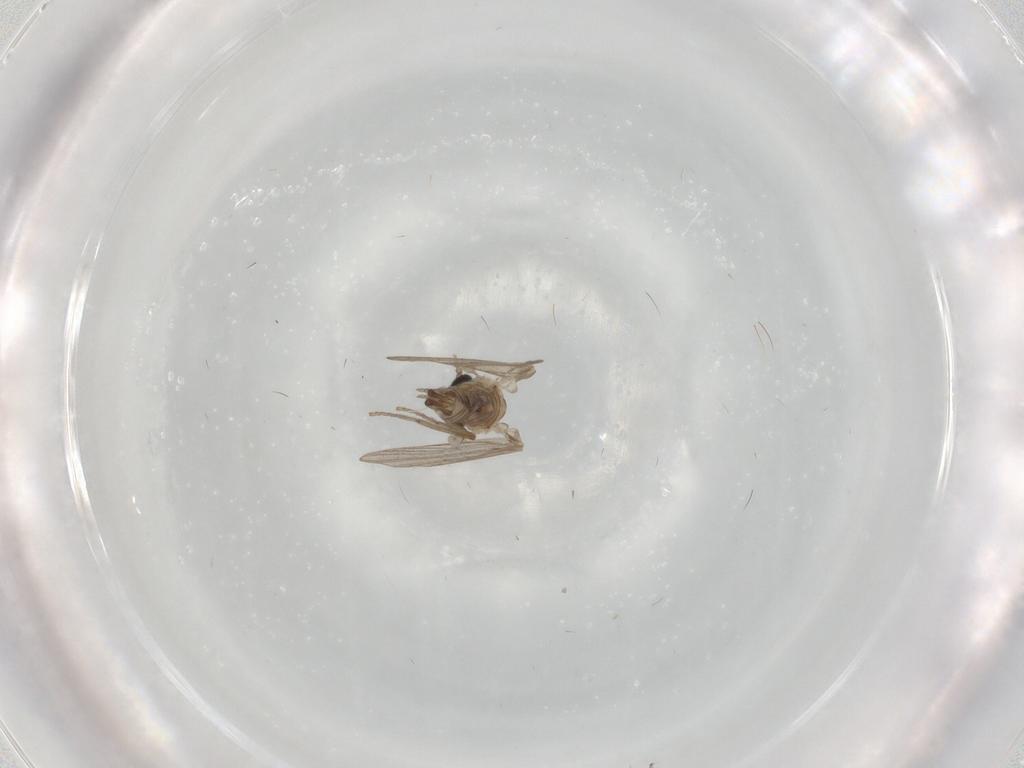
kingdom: Animalia
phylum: Arthropoda
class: Insecta
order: Diptera
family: Psychodidae
